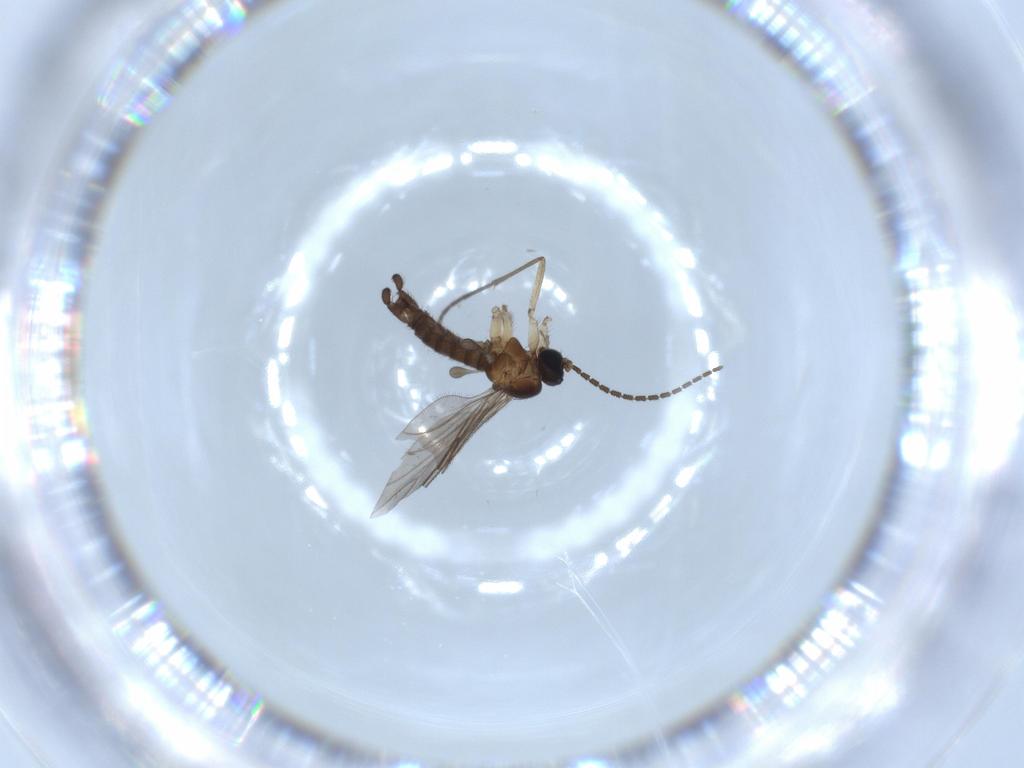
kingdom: Animalia
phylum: Arthropoda
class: Insecta
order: Diptera
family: Sciaridae
